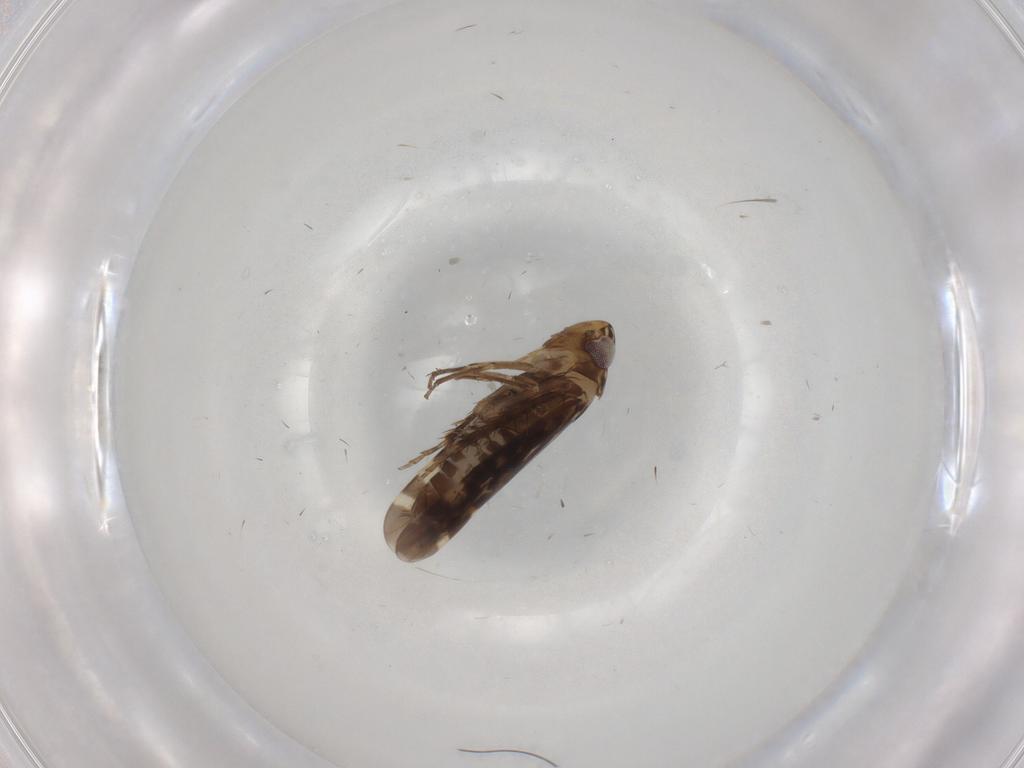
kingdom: Animalia
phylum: Arthropoda
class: Insecta
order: Hemiptera
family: Cicadellidae
